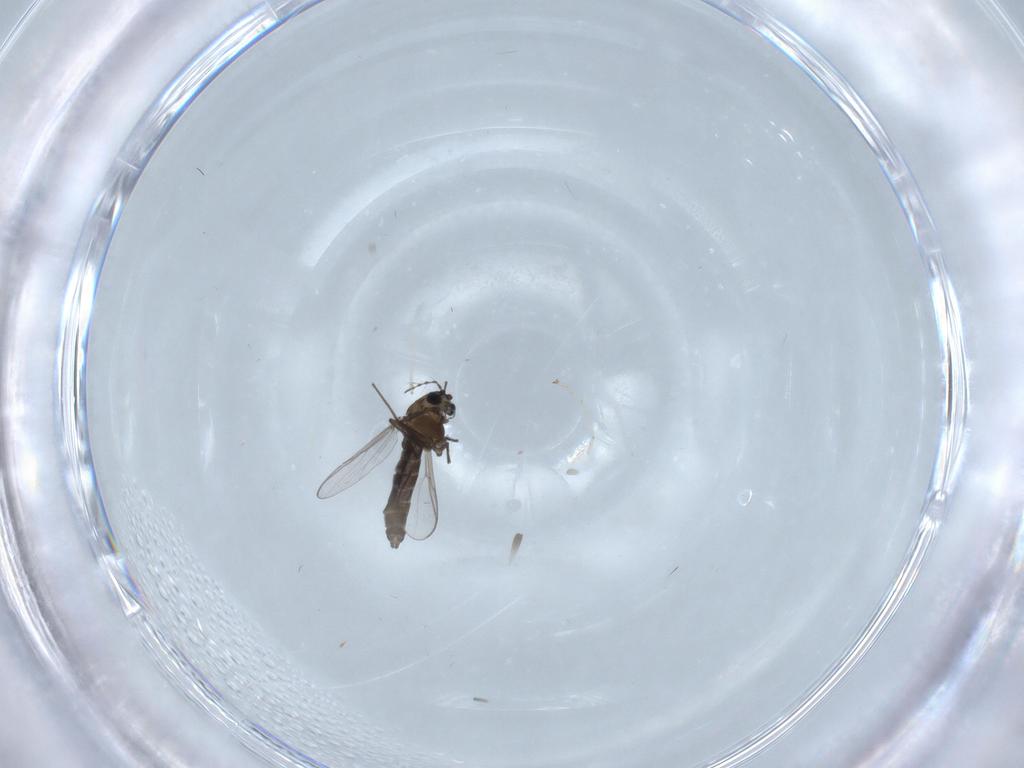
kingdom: Animalia
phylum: Arthropoda
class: Insecta
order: Diptera
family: Chironomidae
